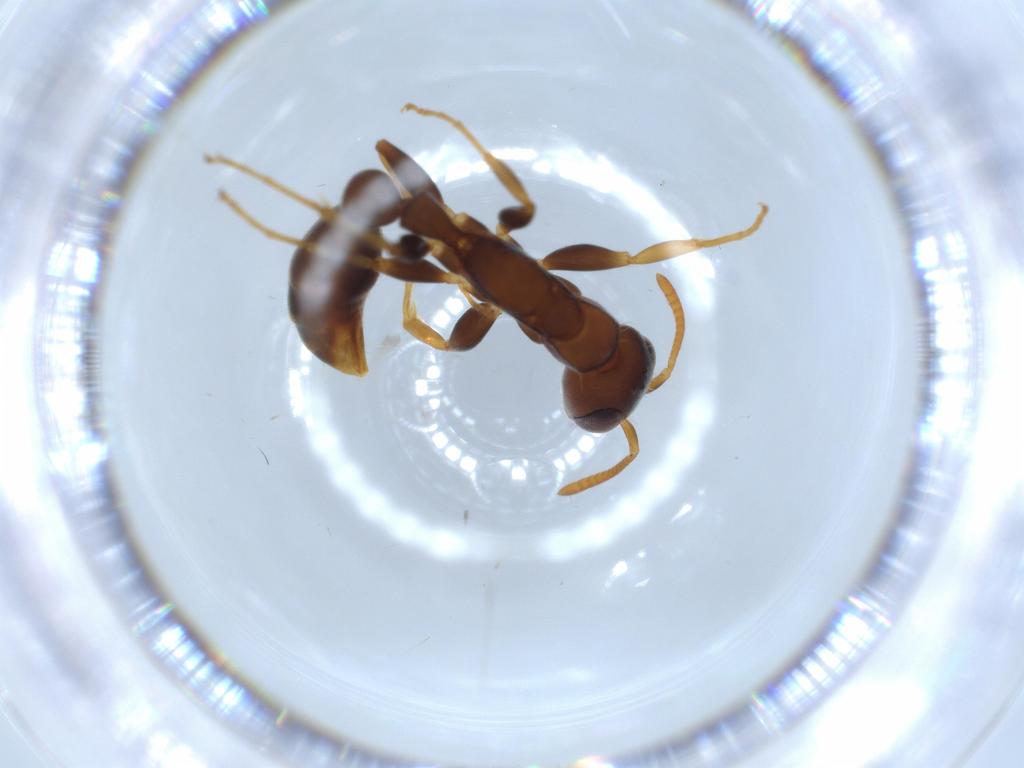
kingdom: Animalia
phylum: Arthropoda
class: Insecta
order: Hymenoptera
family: Formicidae
